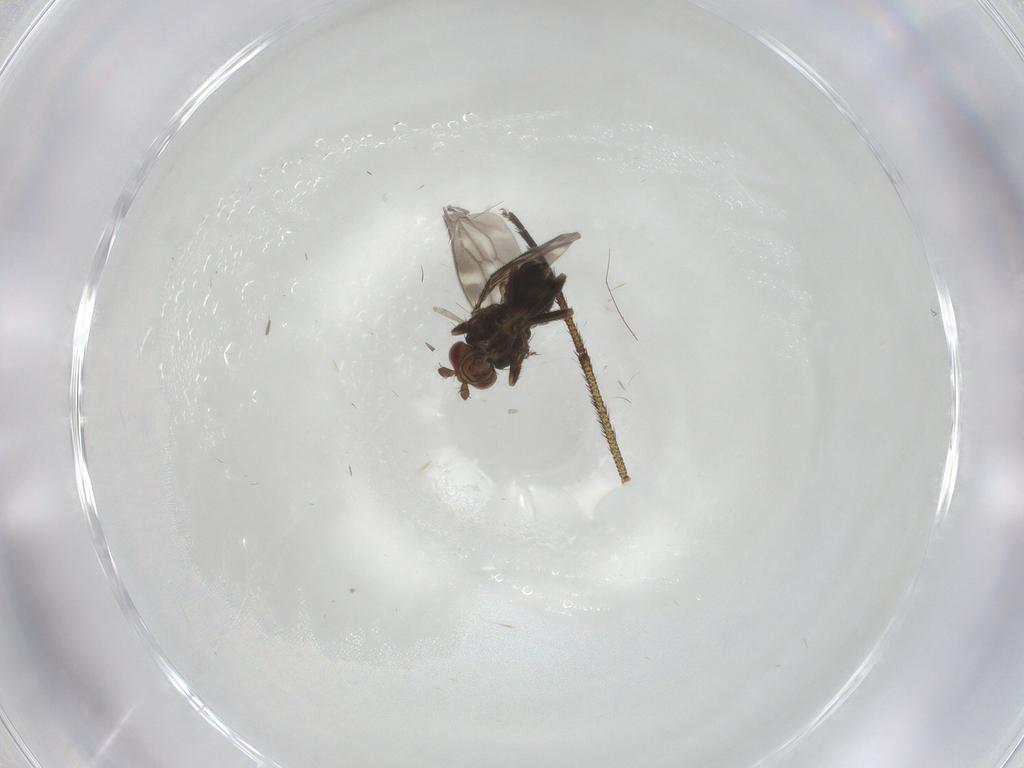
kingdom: Animalia
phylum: Arthropoda
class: Insecta
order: Diptera
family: Sphaeroceridae
